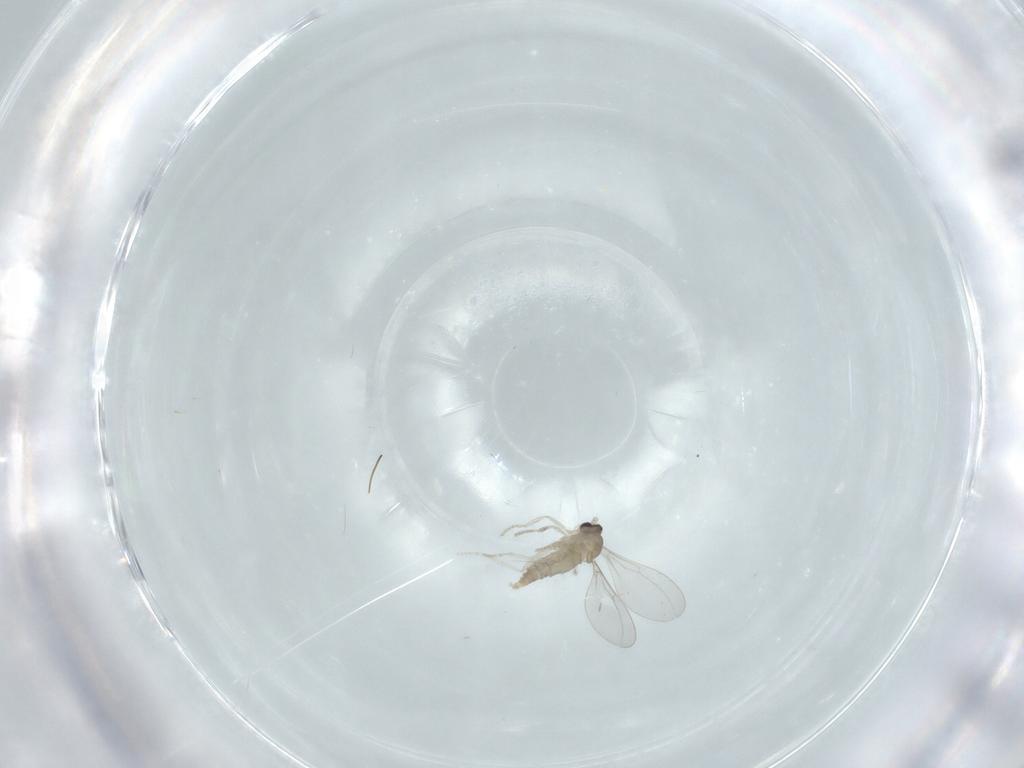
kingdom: Animalia
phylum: Arthropoda
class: Insecta
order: Diptera
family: Cecidomyiidae
